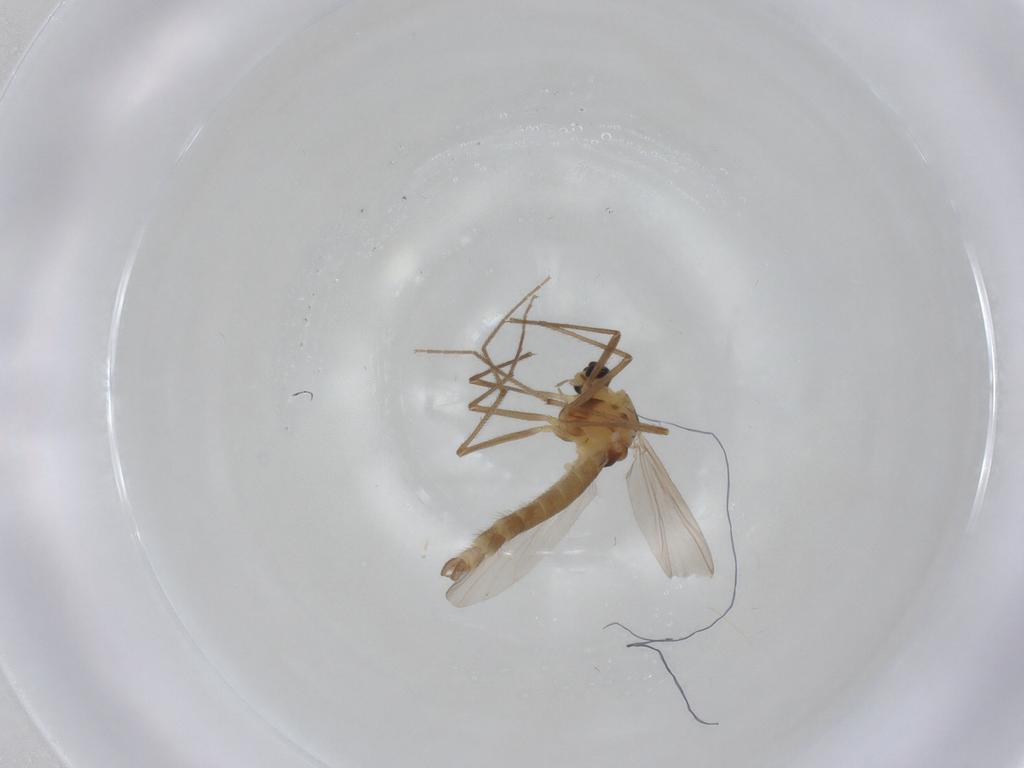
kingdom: Animalia
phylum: Arthropoda
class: Insecta
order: Diptera
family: Chironomidae
